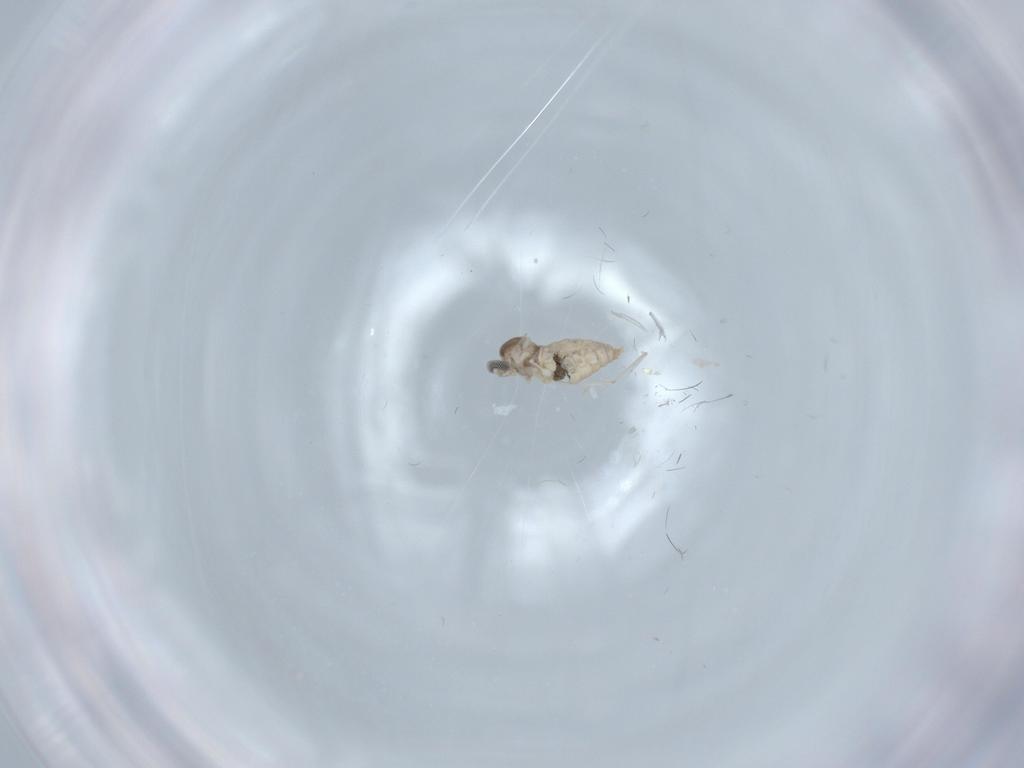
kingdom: Animalia
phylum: Arthropoda
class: Insecta
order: Diptera
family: Cecidomyiidae
